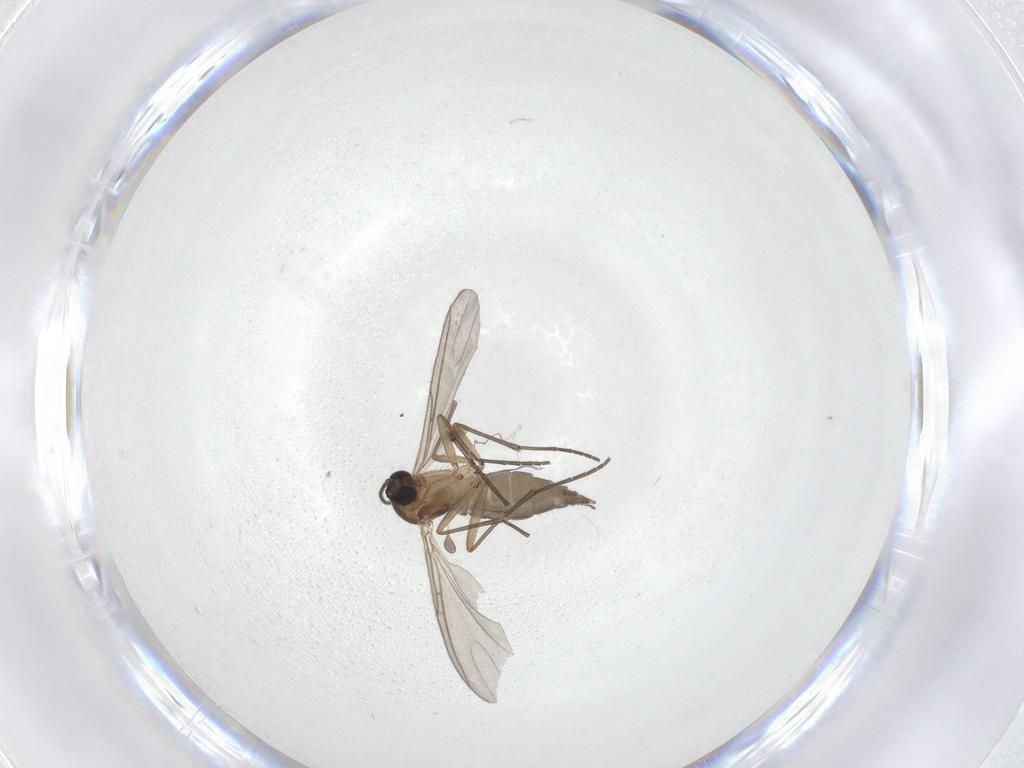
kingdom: Animalia
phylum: Arthropoda
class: Insecta
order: Diptera
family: Sciaridae
